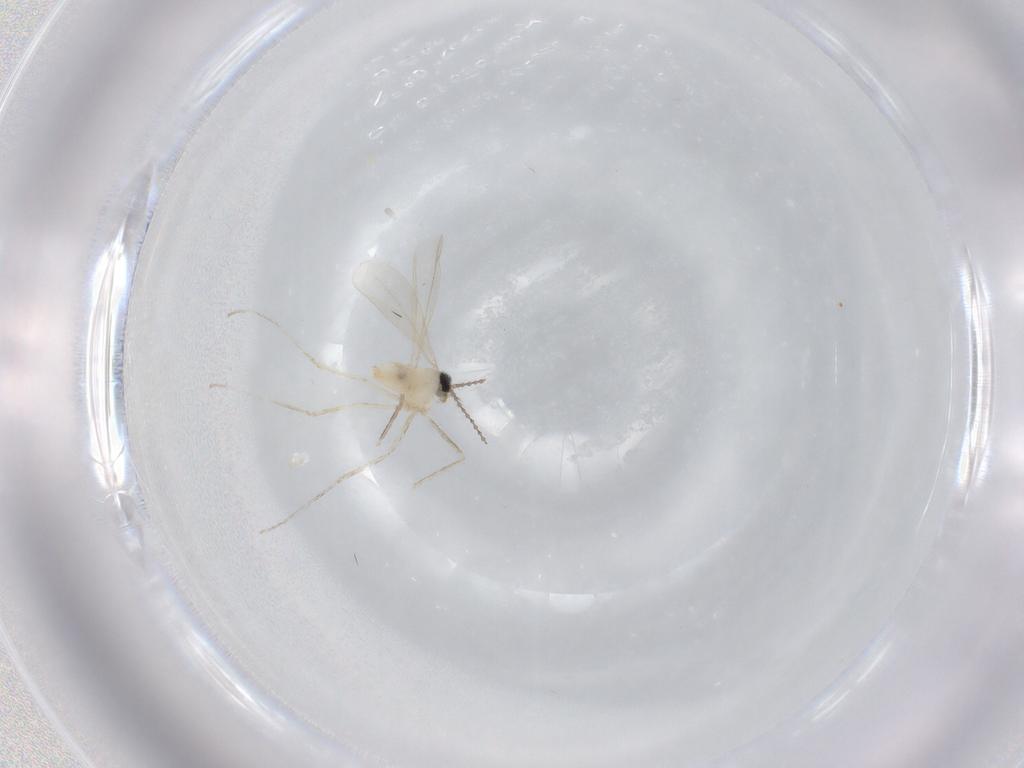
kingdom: Animalia
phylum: Arthropoda
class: Insecta
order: Diptera
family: Cecidomyiidae
